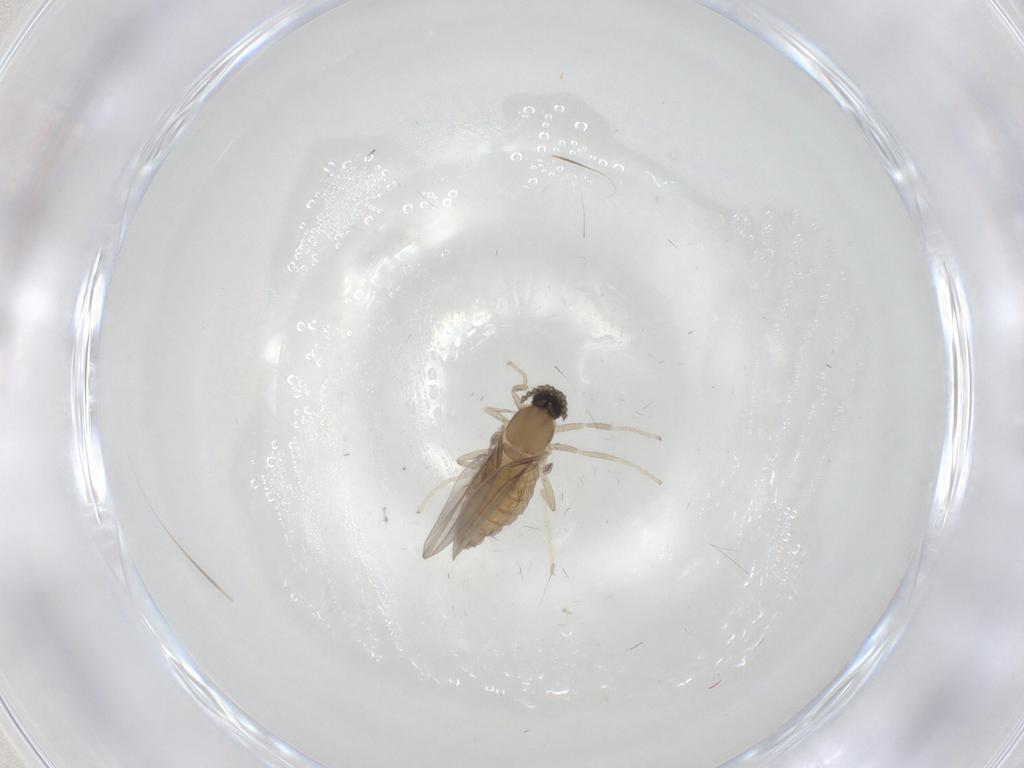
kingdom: Animalia
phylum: Arthropoda
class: Insecta
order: Diptera
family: Cecidomyiidae
